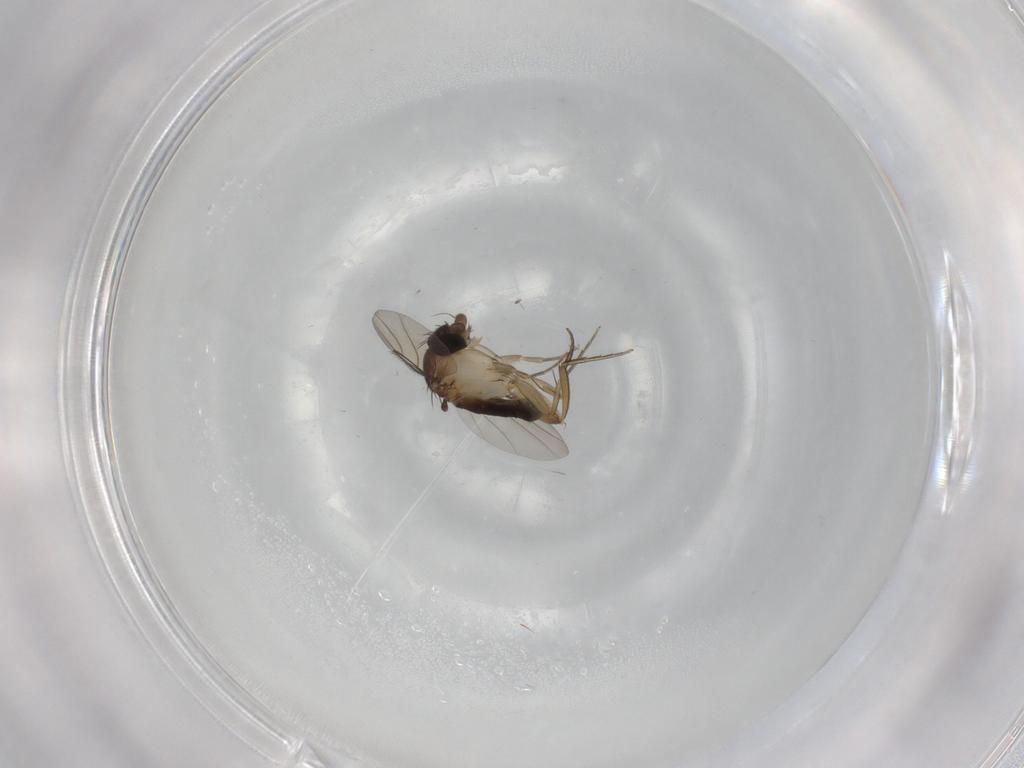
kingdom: Animalia
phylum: Arthropoda
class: Insecta
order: Diptera
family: Phoridae
